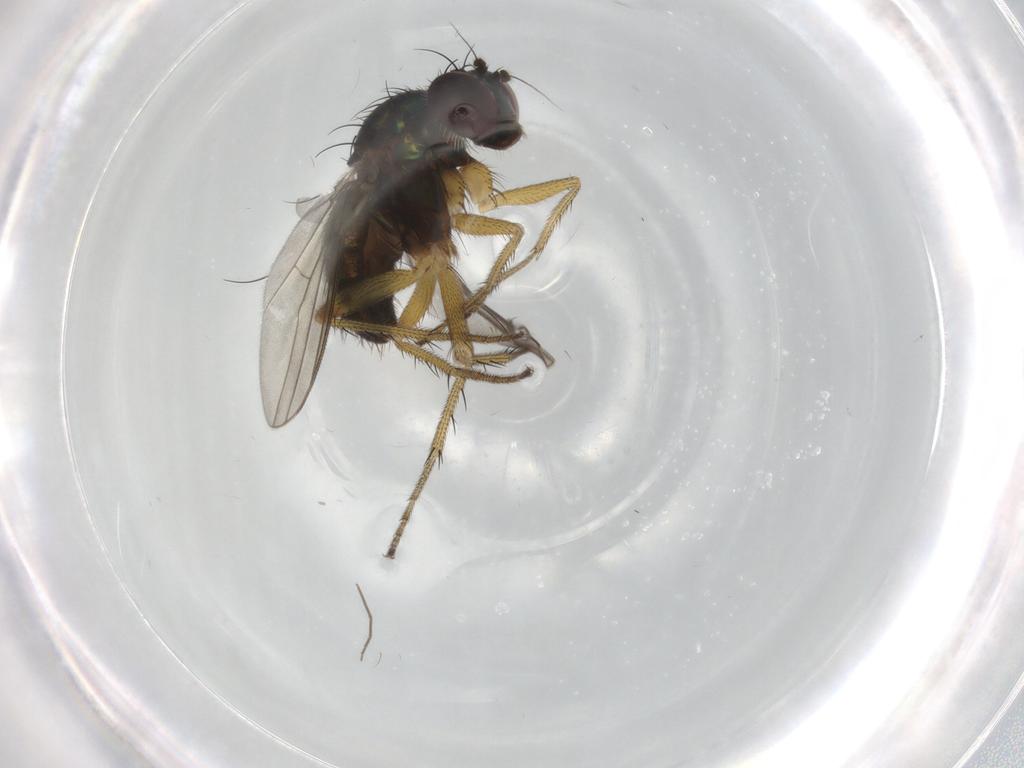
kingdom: Animalia
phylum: Arthropoda
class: Insecta
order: Diptera
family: Dolichopodidae
